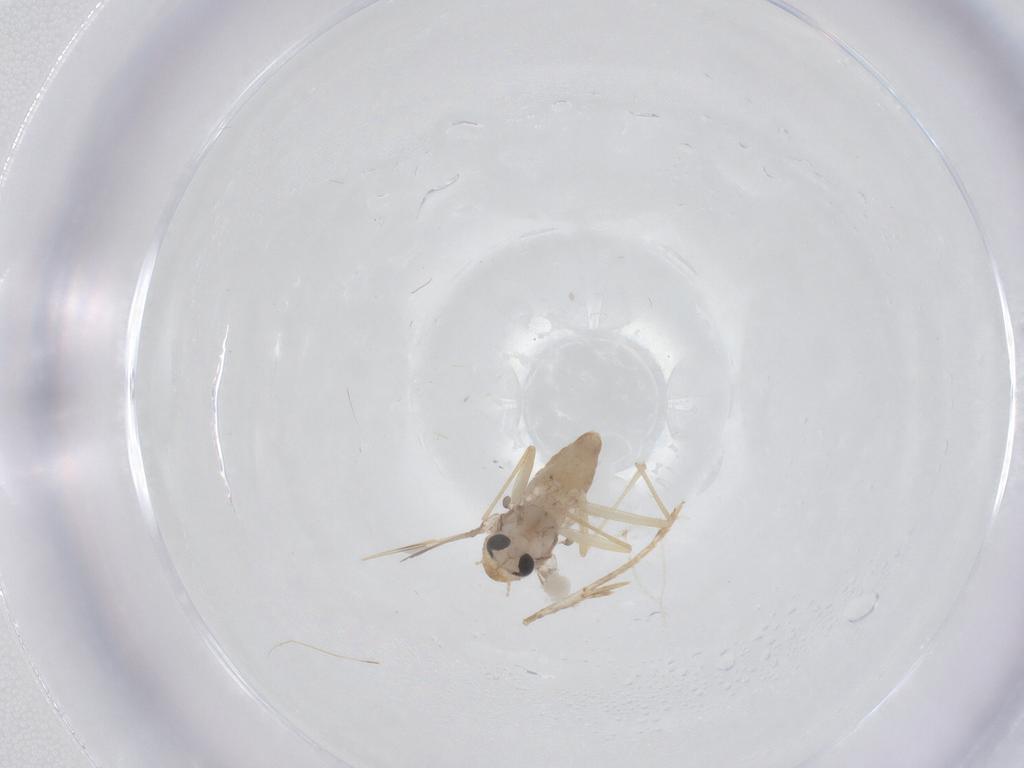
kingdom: Animalia
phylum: Arthropoda
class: Insecta
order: Diptera
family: Chironomidae
